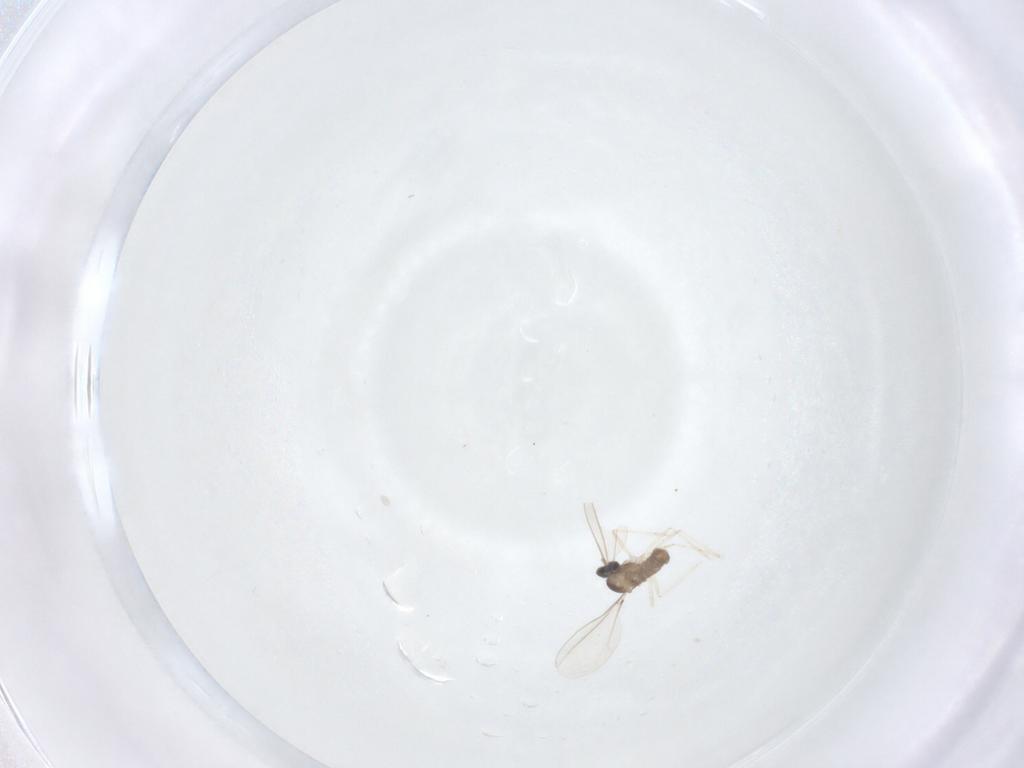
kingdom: Animalia
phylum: Arthropoda
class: Insecta
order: Diptera
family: Cecidomyiidae
